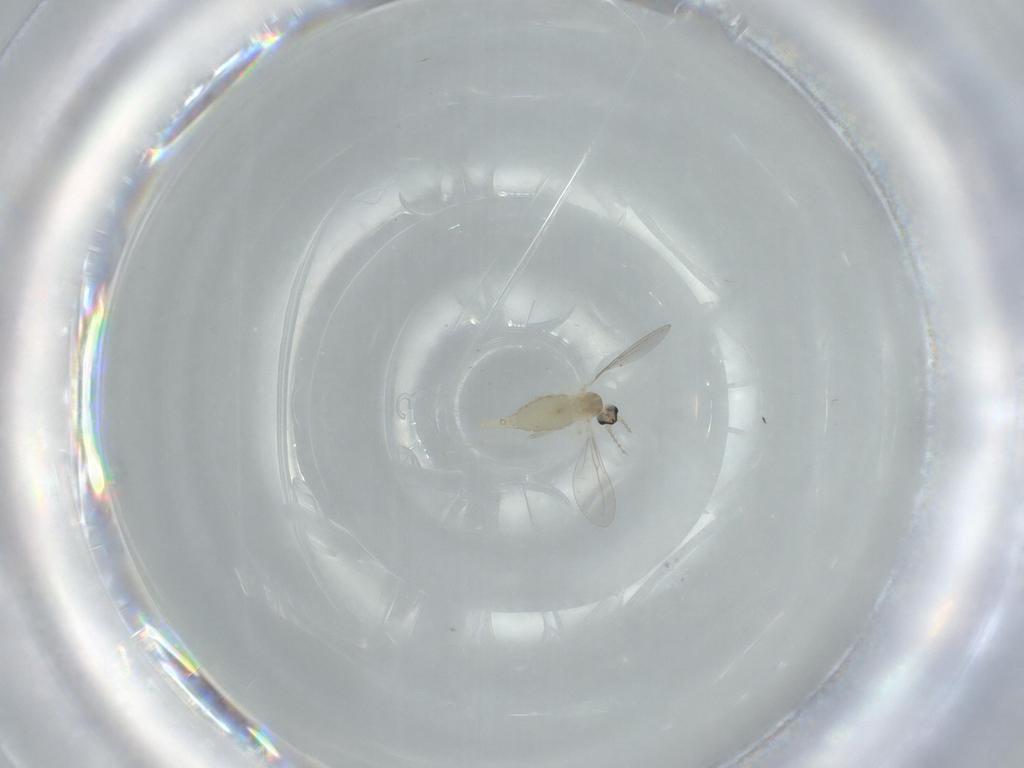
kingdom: Animalia
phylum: Arthropoda
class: Insecta
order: Diptera
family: Cecidomyiidae
